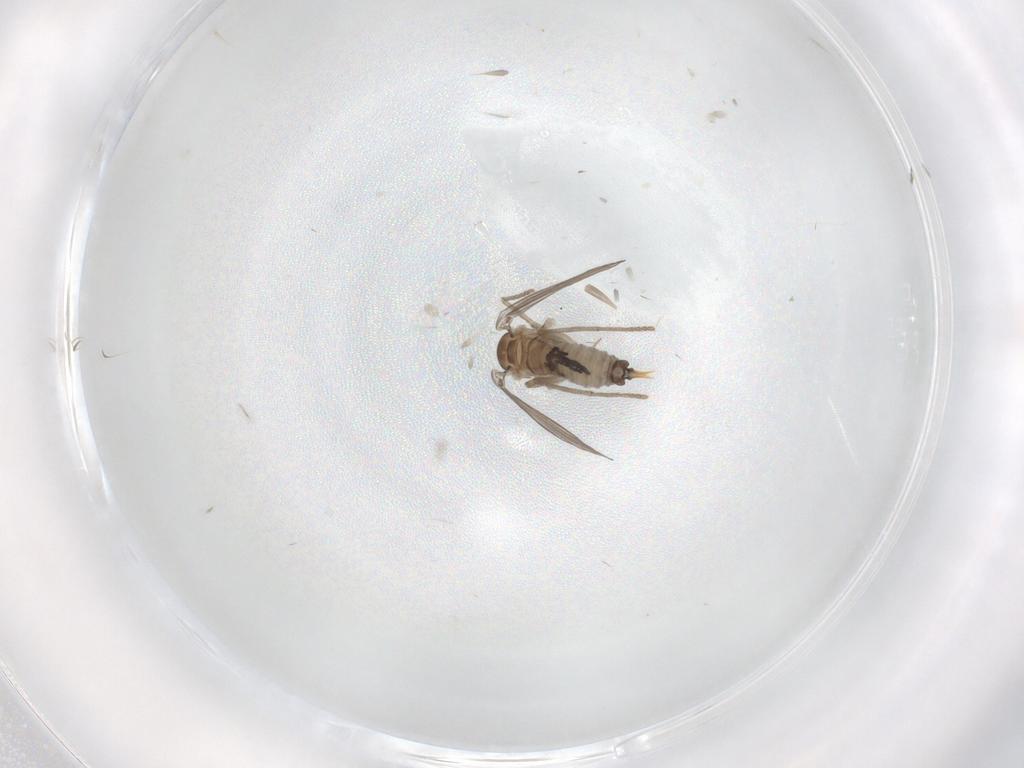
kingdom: Animalia
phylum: Arthropoda
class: Insecta
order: Diptera
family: Psychodidae
